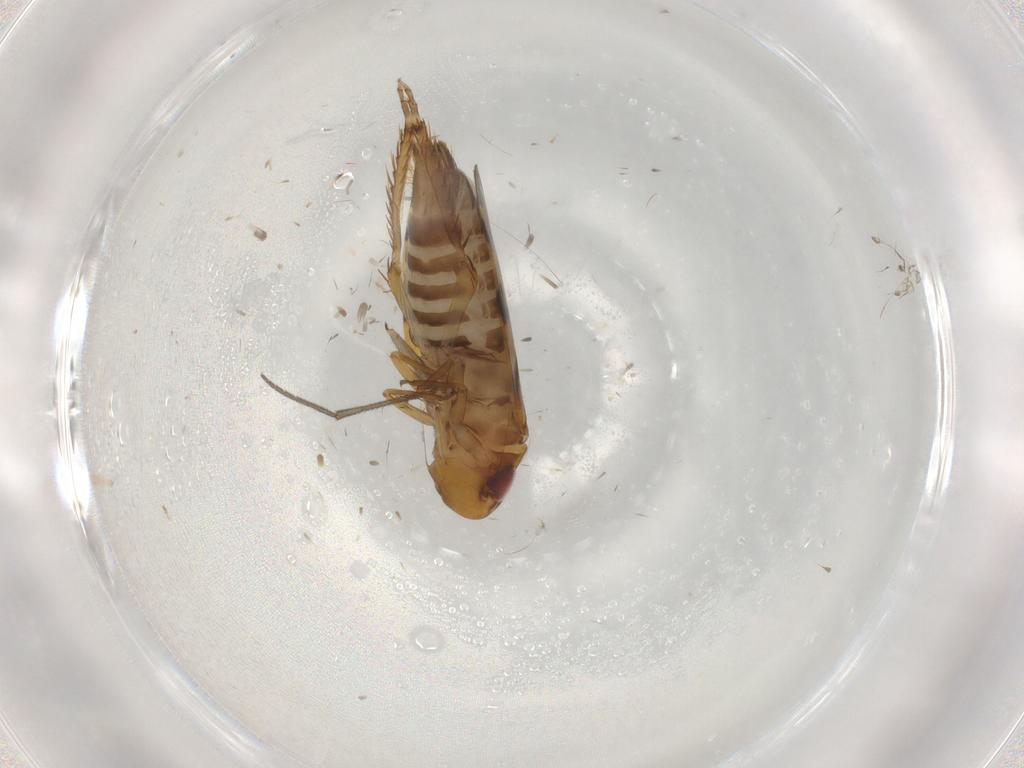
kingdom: Animalia
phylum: Arthropoda
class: Insecta
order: Hemiptera
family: Cicadellidae
